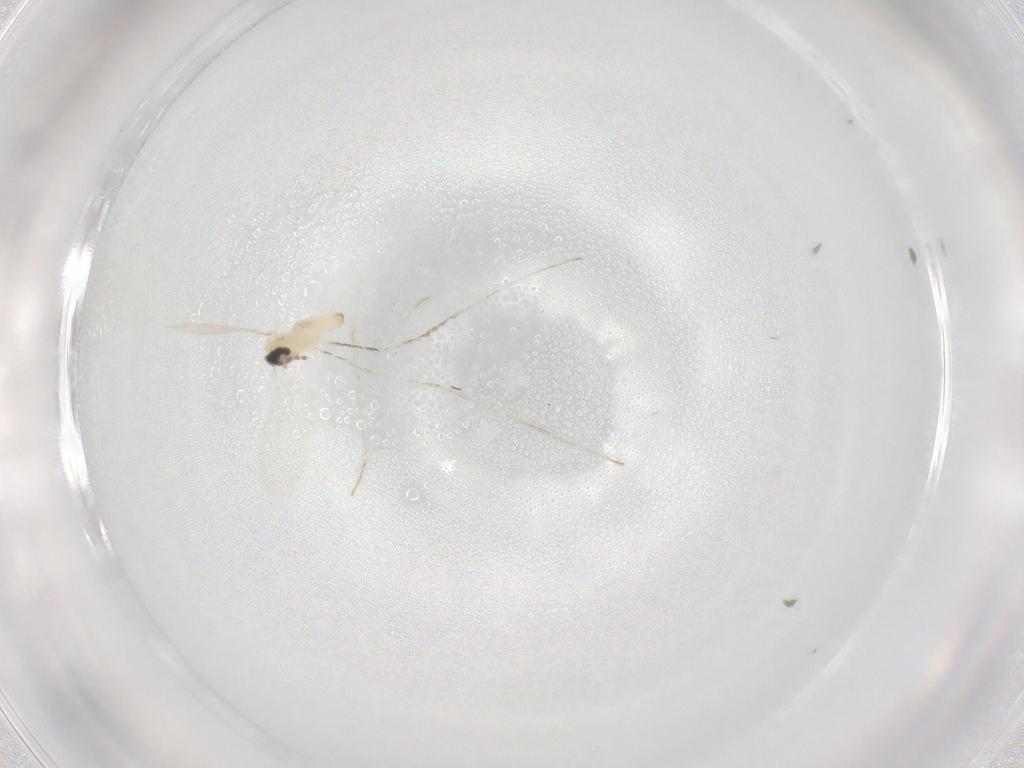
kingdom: Animalia
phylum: Arthropoda
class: Insecta
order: Diptera
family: Cecidomyiidae
